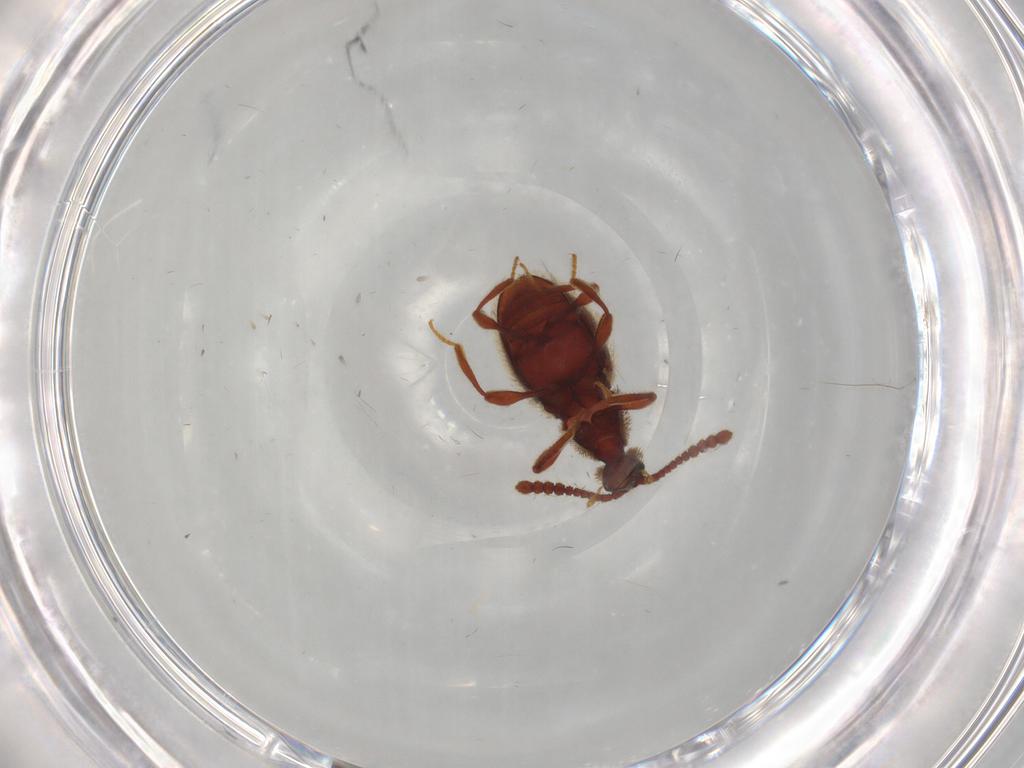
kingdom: Animalia
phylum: Arthropoda
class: Insecta
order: Coleoptera
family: Staphylinidae
